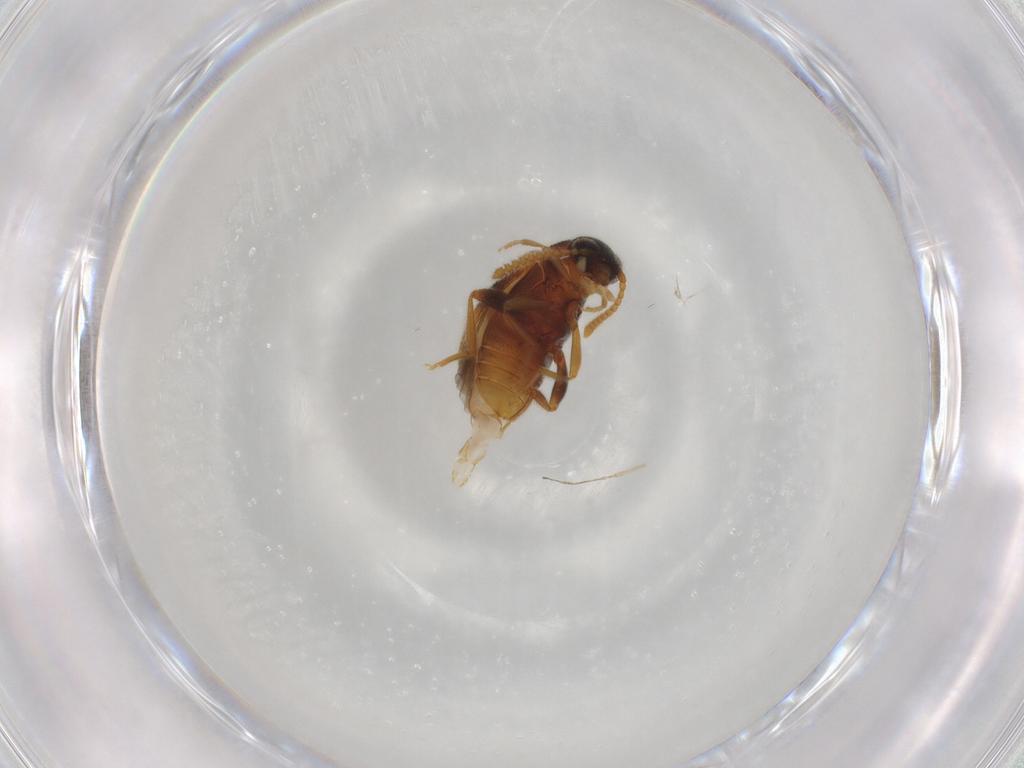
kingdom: Animalia
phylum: Arthropoda
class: Insecta
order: Coleoptera
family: Aderidae
